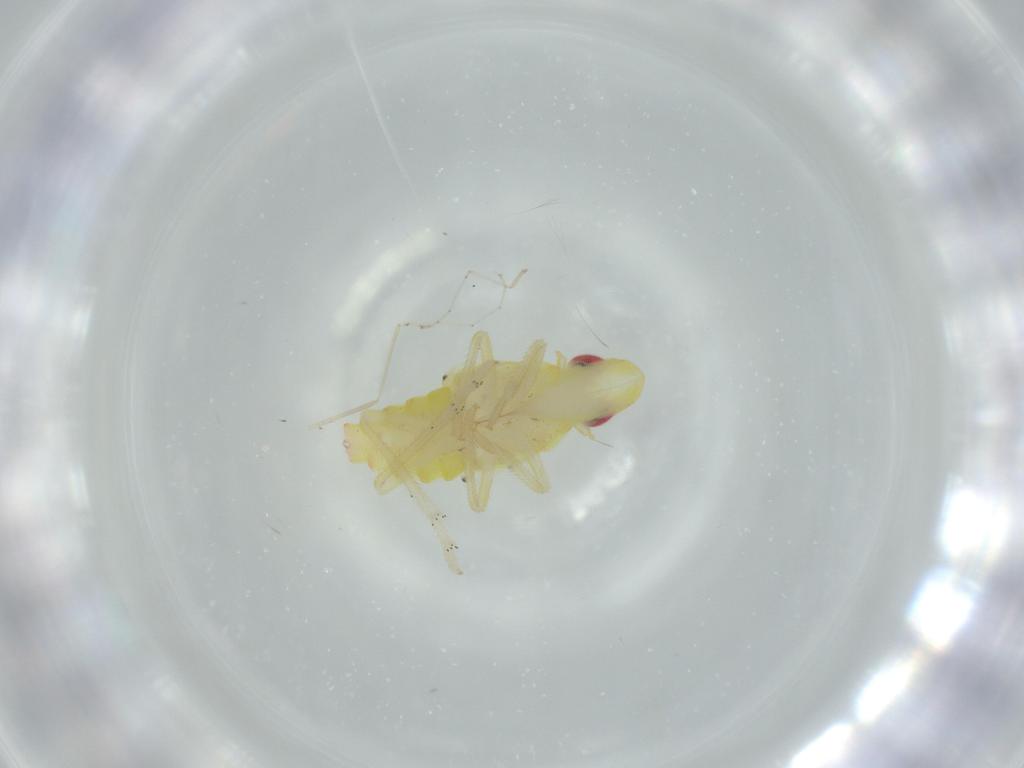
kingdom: Animalia
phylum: Arthropoda
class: Insecta
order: Hemiptera
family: Tropiduchidae
